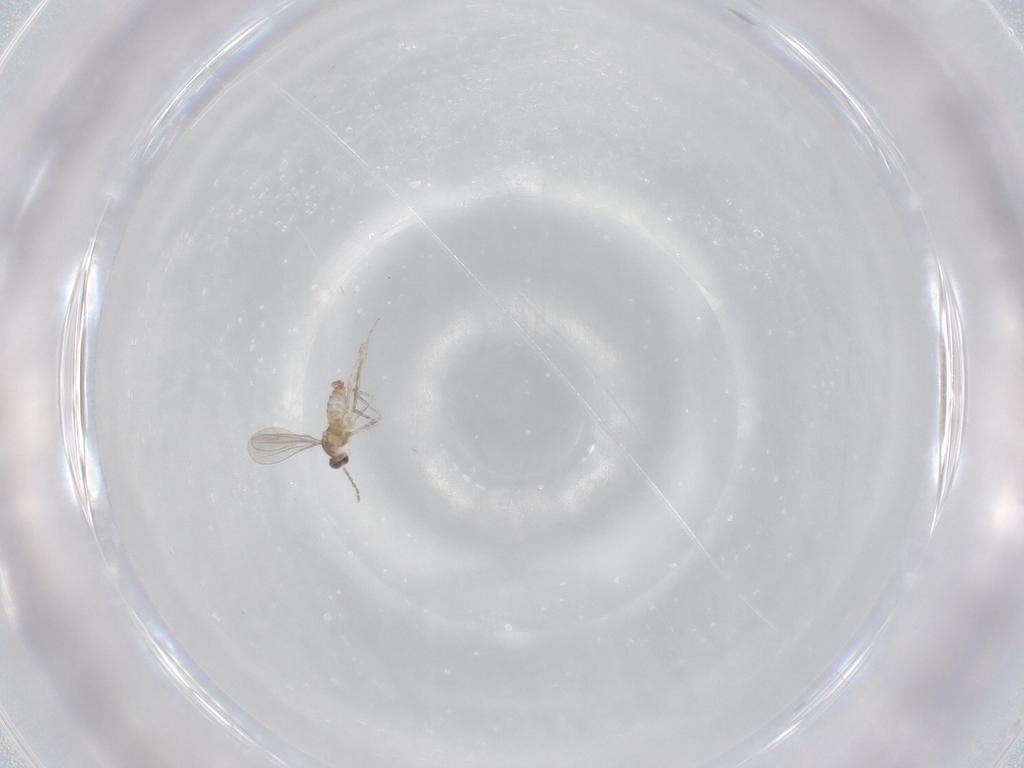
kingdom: Animalia
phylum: Arthropoda
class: Insecta
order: Diptera
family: Cecidomyiidae
